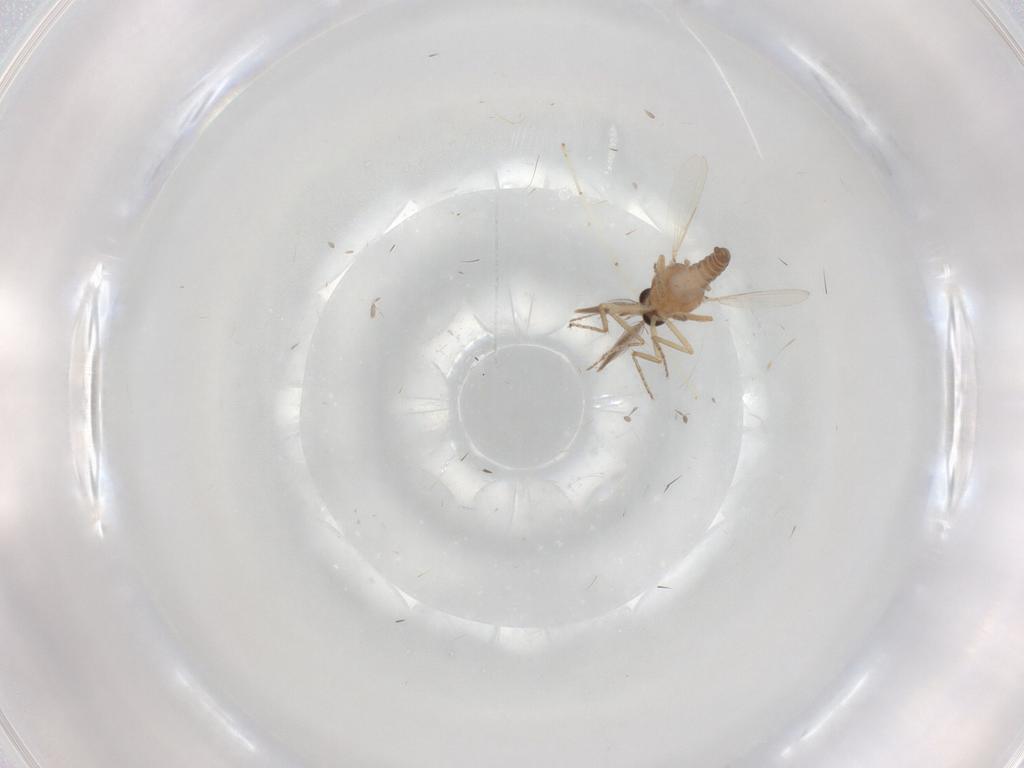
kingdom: Animalia
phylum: Arthropoda
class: Insecta
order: Diptera
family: Ceratopogonidae
